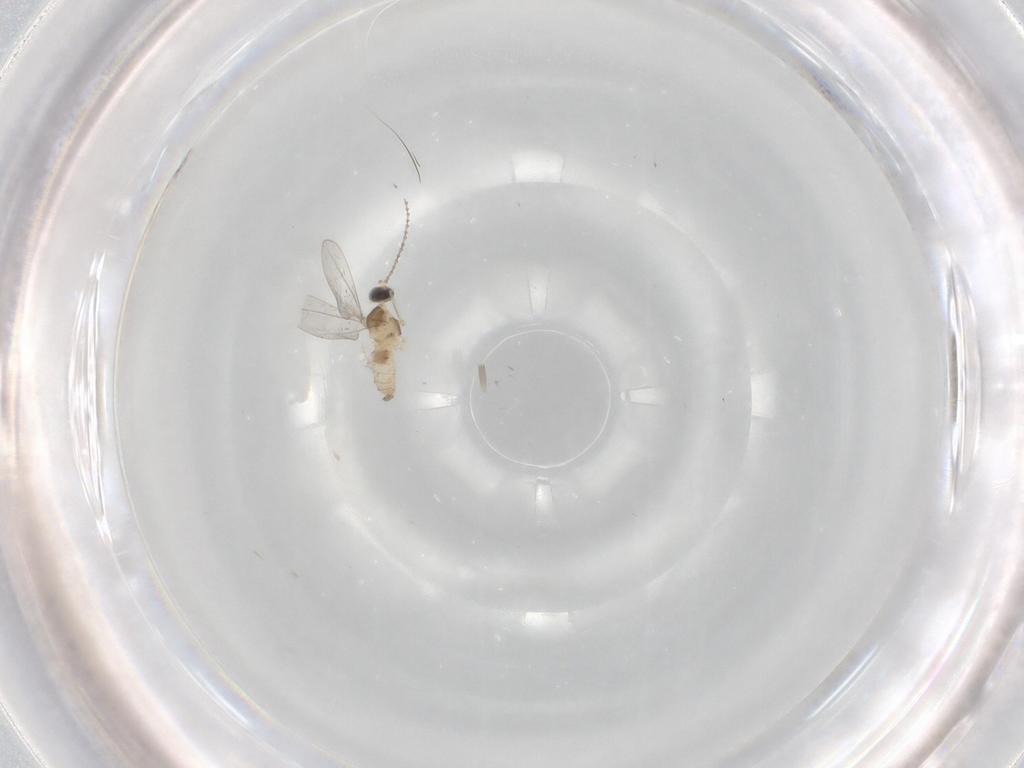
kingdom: Animalia
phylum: Arthropoda
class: Insecta
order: Diptera
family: Cecidomyiidae
